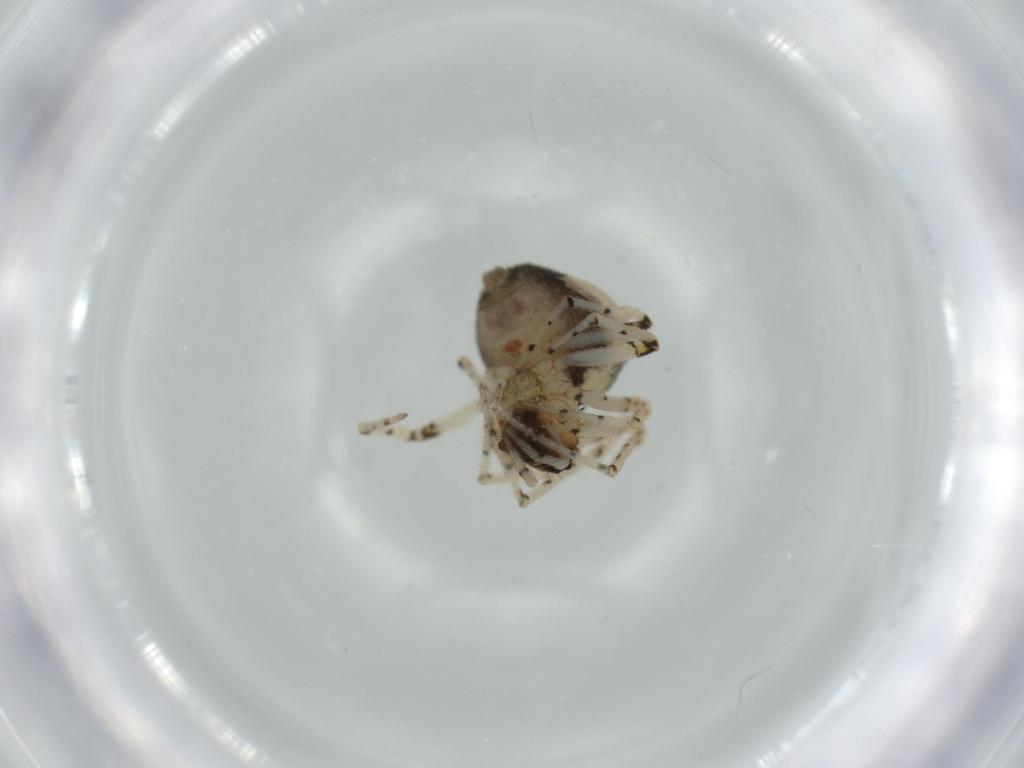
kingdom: Animalia
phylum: Arthropoda
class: Arachnida
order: Araneae
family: Theridiidae
